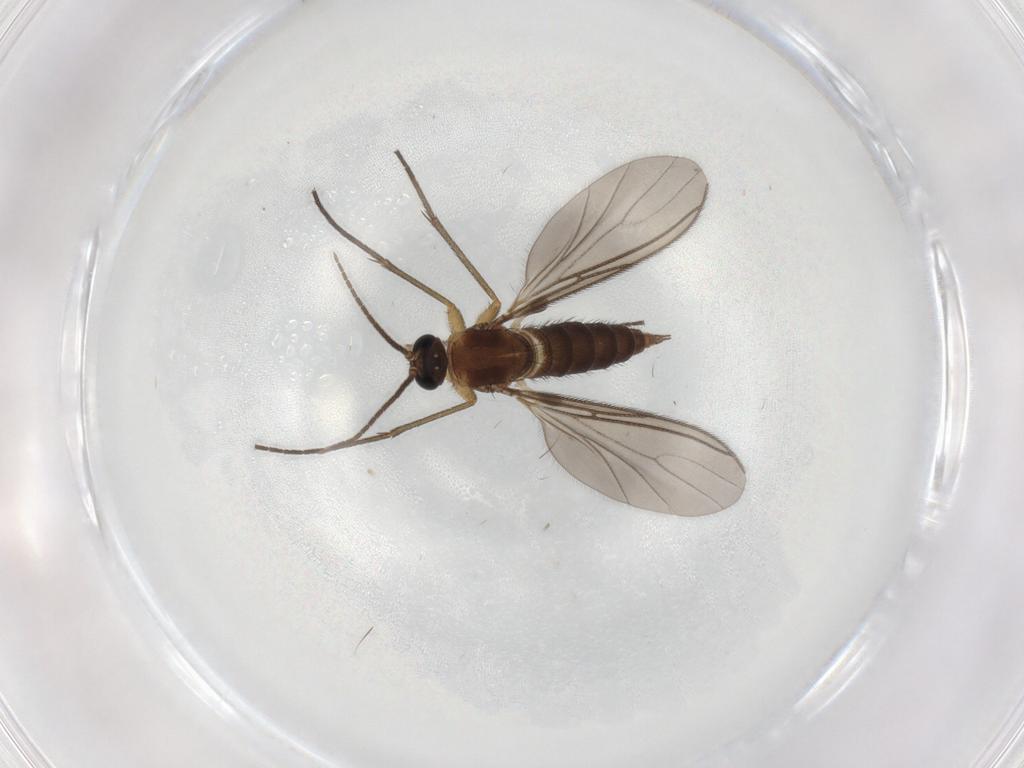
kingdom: Animalia
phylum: Arthropoda
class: Insecta
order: Diptera
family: Sciaridae
